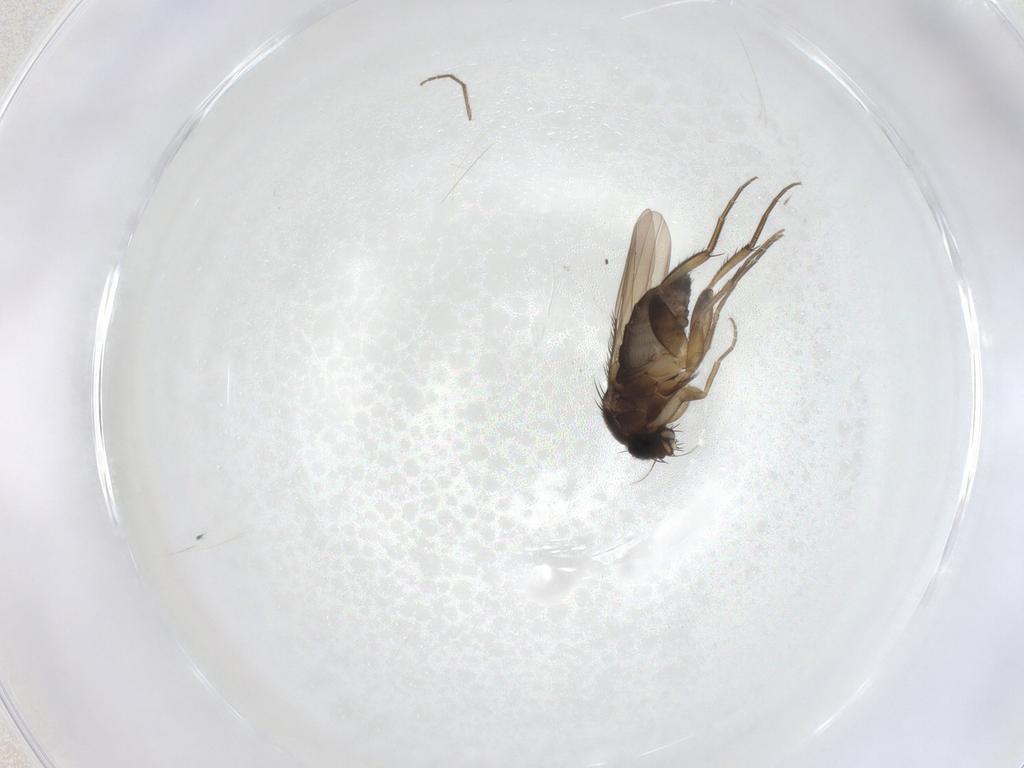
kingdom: Animalia
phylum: Arthropoda
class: Insecta
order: Diptera
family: Phoridae
